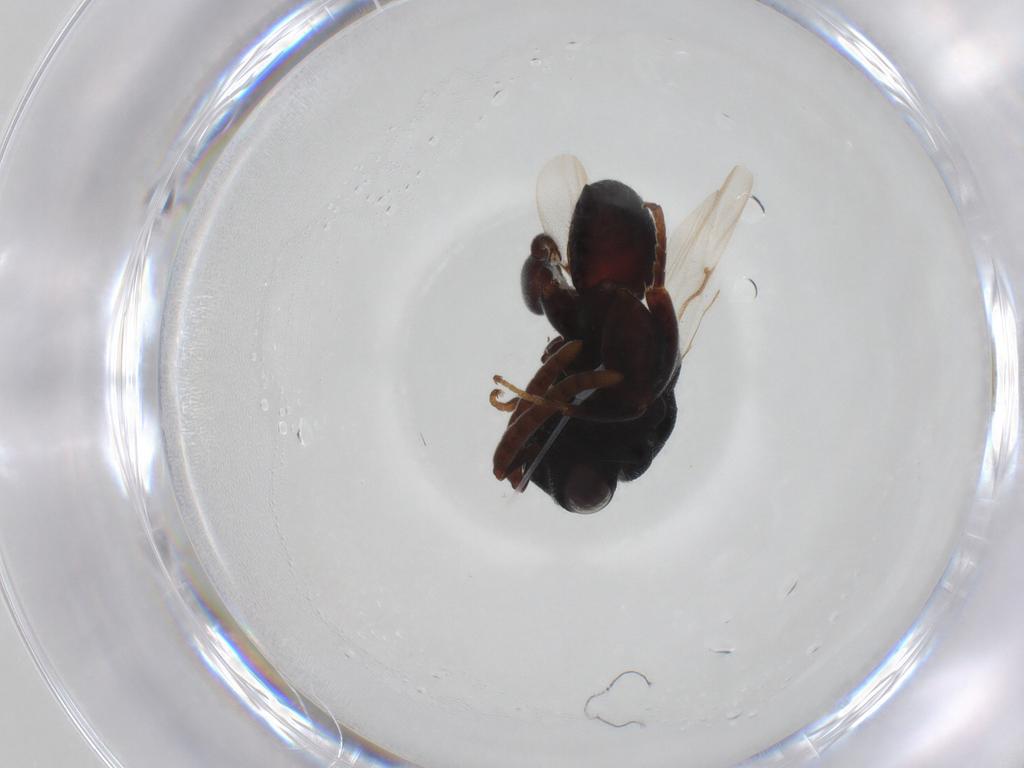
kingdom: Animalia
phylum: Arthropoda
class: Insecta
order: Hymenoptera
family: Chalcididae
